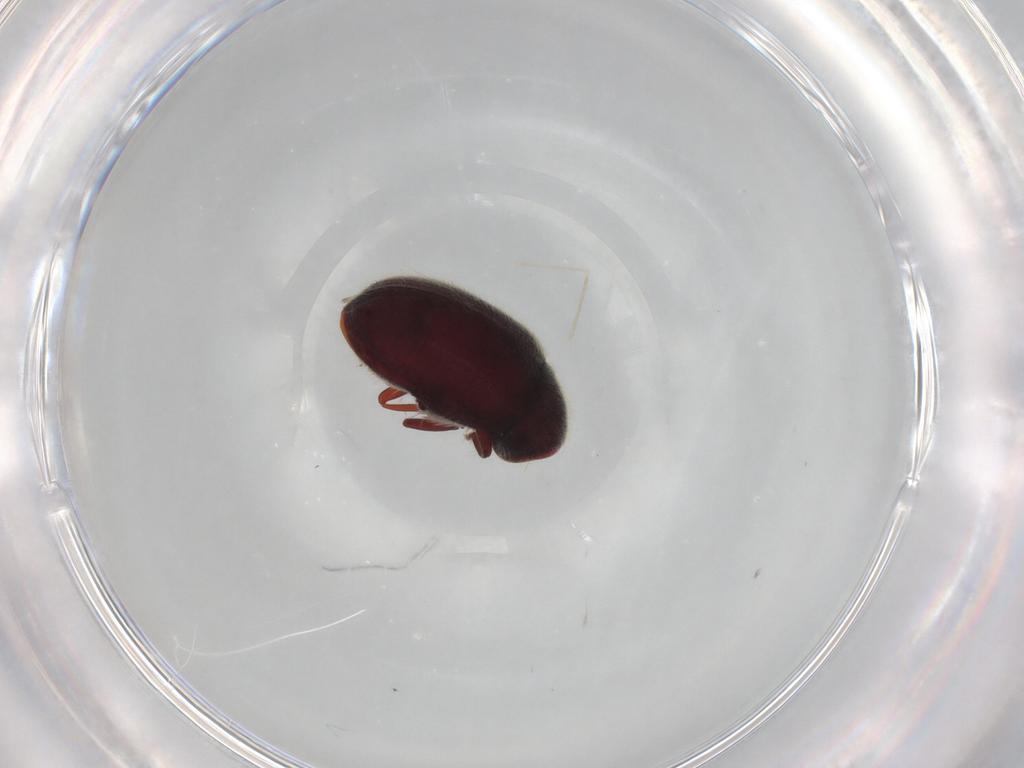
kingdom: Animalia
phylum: Arthropoda
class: Insecta
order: Coleoptera
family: Ptinidae
